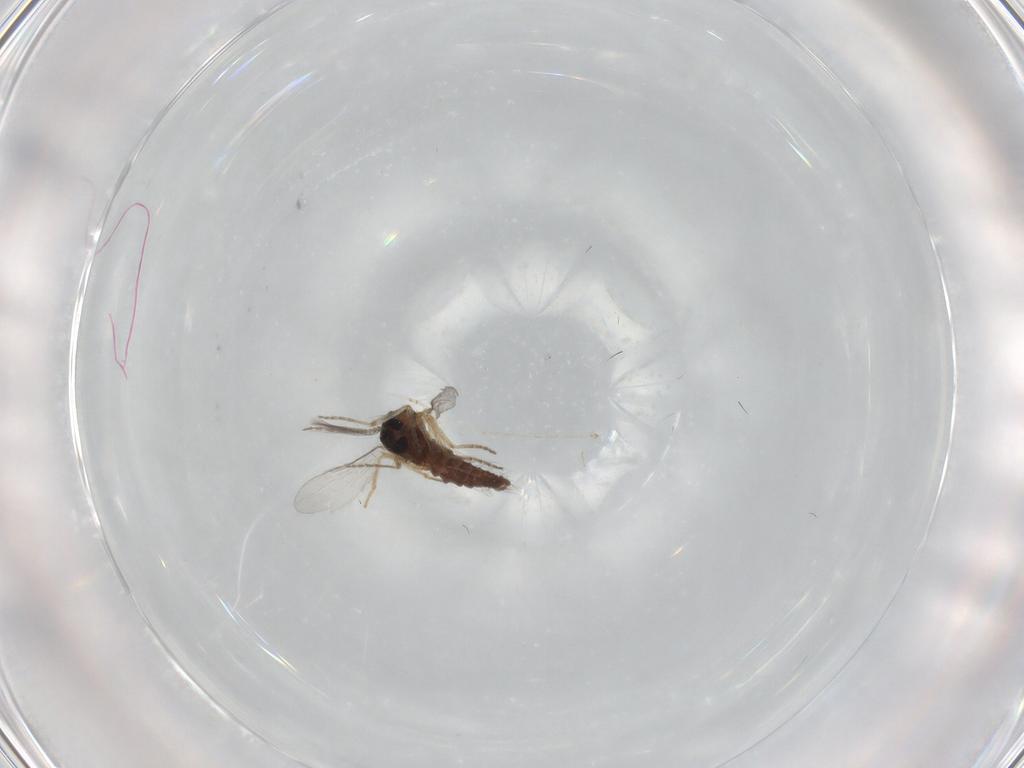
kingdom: Animalia
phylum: Arthropoda
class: Insecta
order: Diptera
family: Ceratopogonidae
